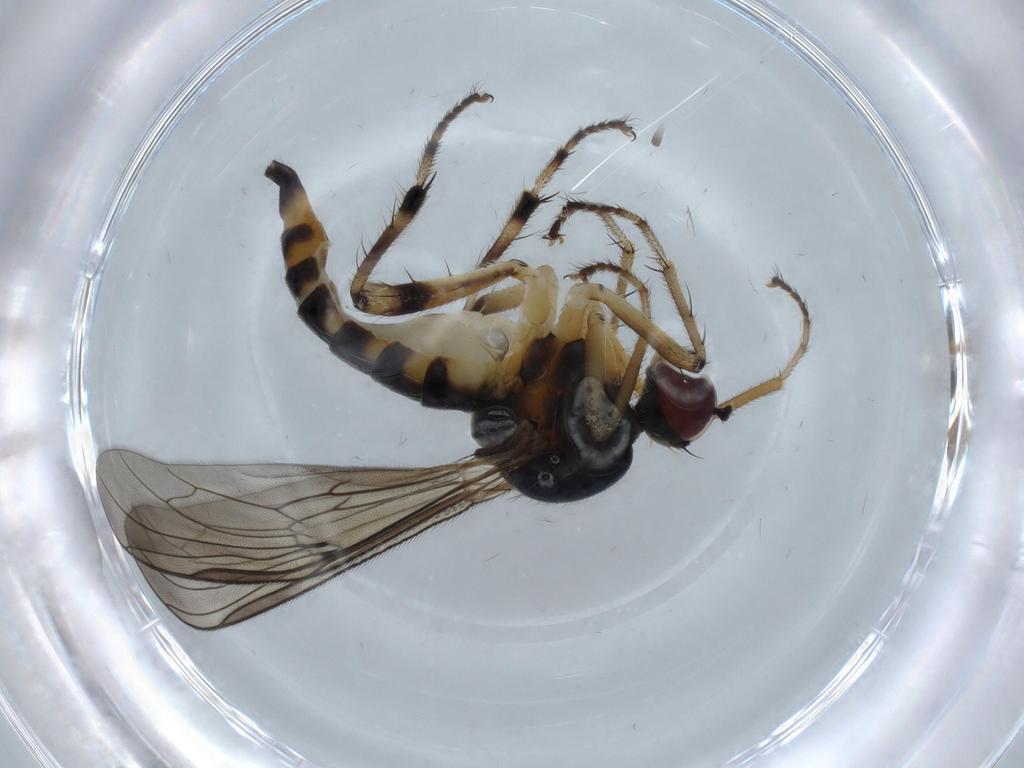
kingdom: Animalia
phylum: Arthropoda
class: Insecta
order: Diptera
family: Hybotidae
